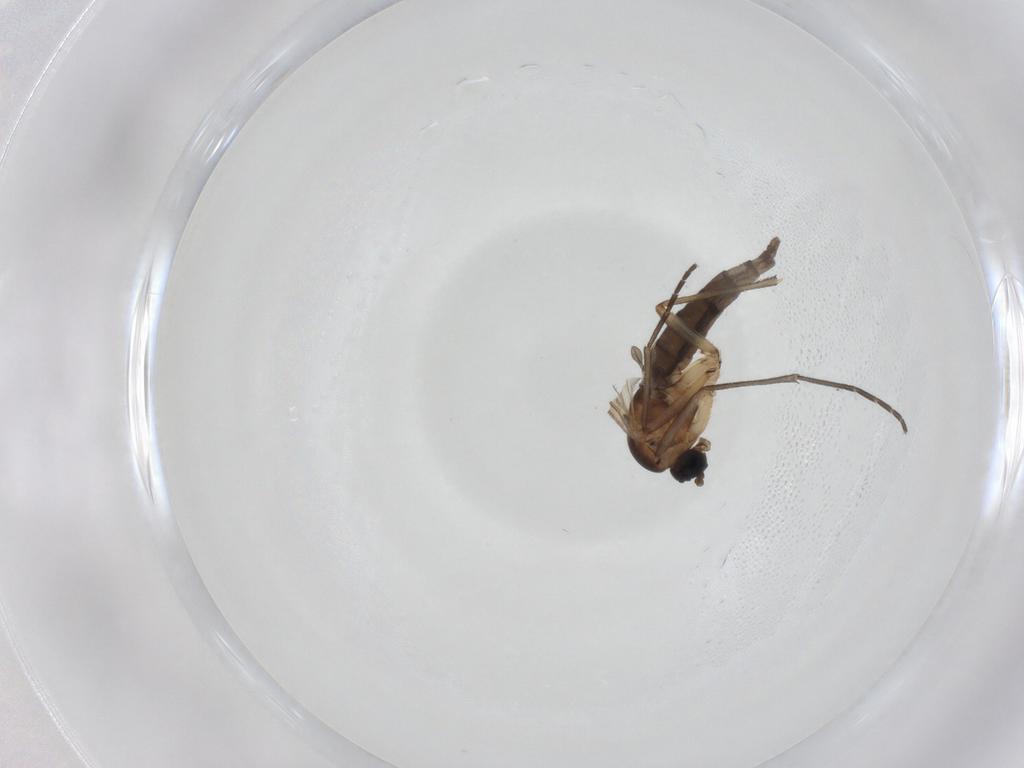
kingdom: Animalia
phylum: Arthropoda
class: Insecta
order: Diptera
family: Sciaridae
